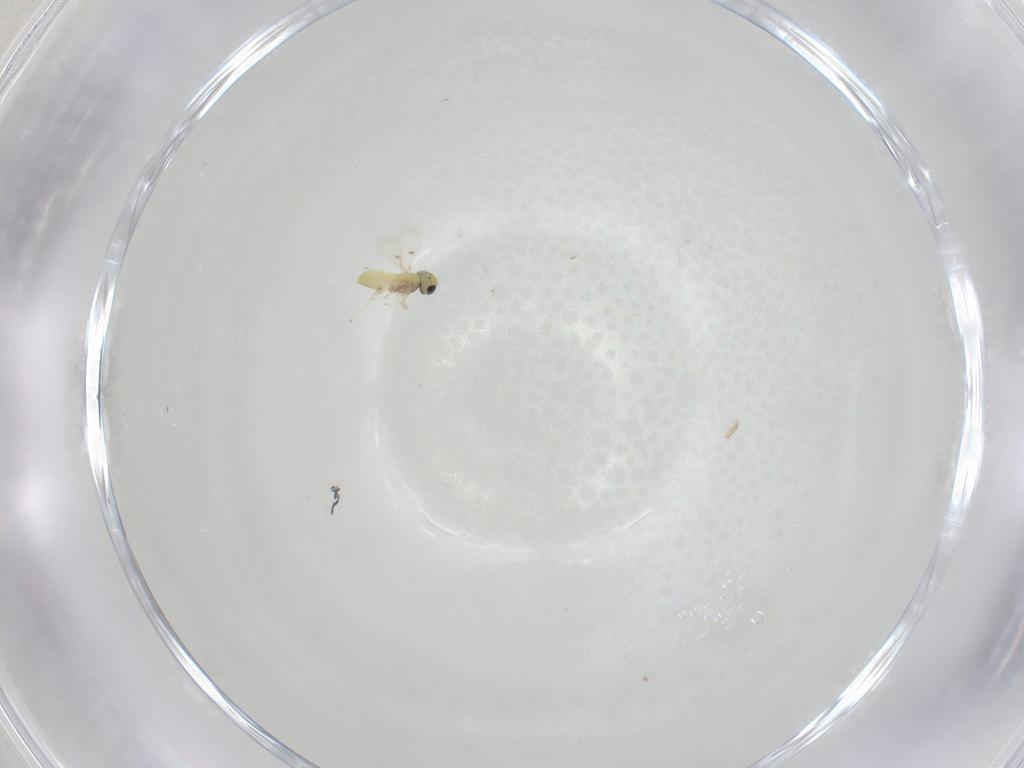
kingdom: Animalia
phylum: Arthropoda
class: Insecta
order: Hymenoptera
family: Trichogrammatidae
